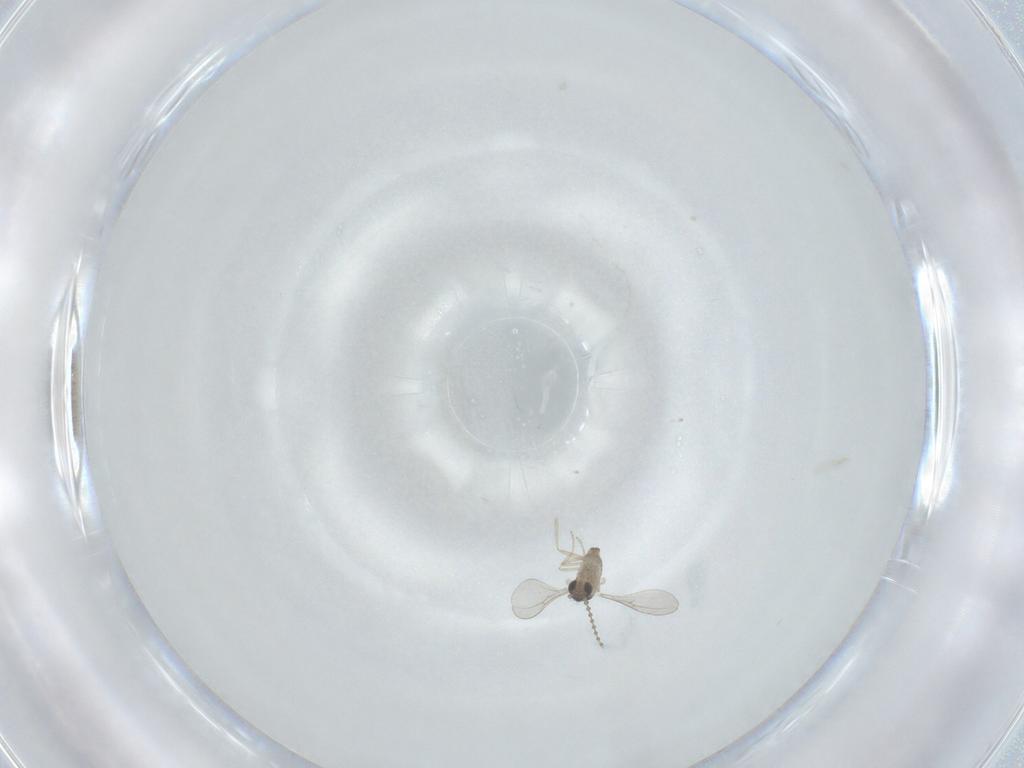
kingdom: Animalia
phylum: Arthropoda
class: Insecta
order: Diptera
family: Cecidomyiidae
